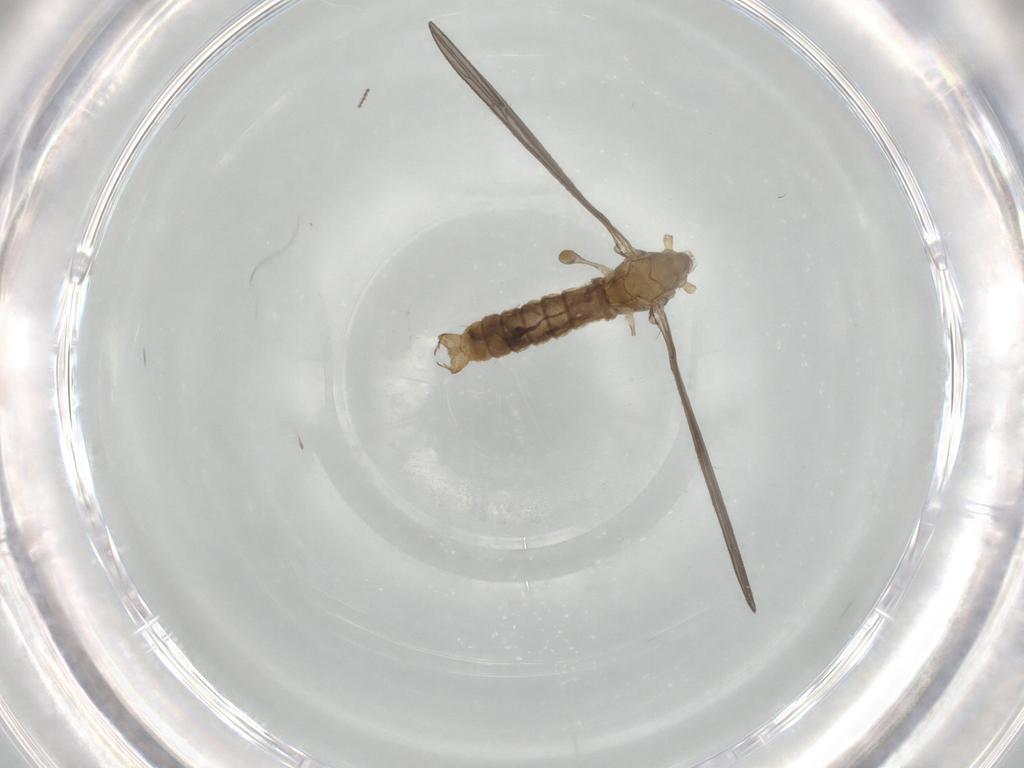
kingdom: Animalia
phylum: Arthropoda
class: Insecta
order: Diptera
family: Limoniidae
